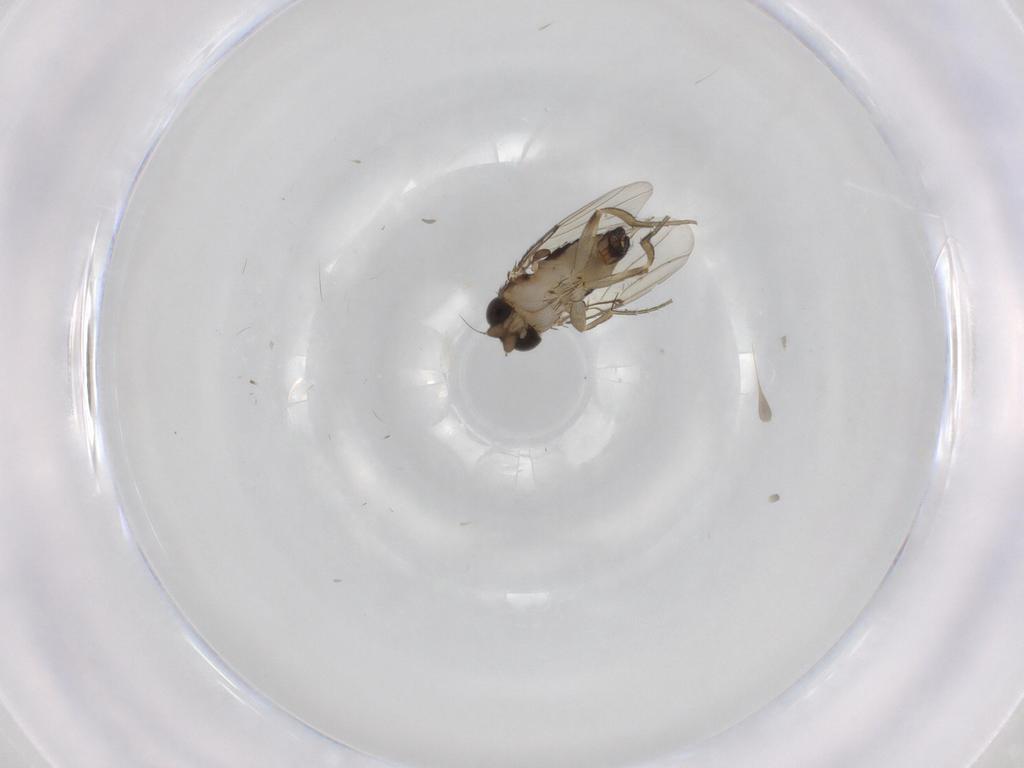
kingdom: Animalia
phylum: Arthropoda
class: Insecta
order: Diptera
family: Phoridae
